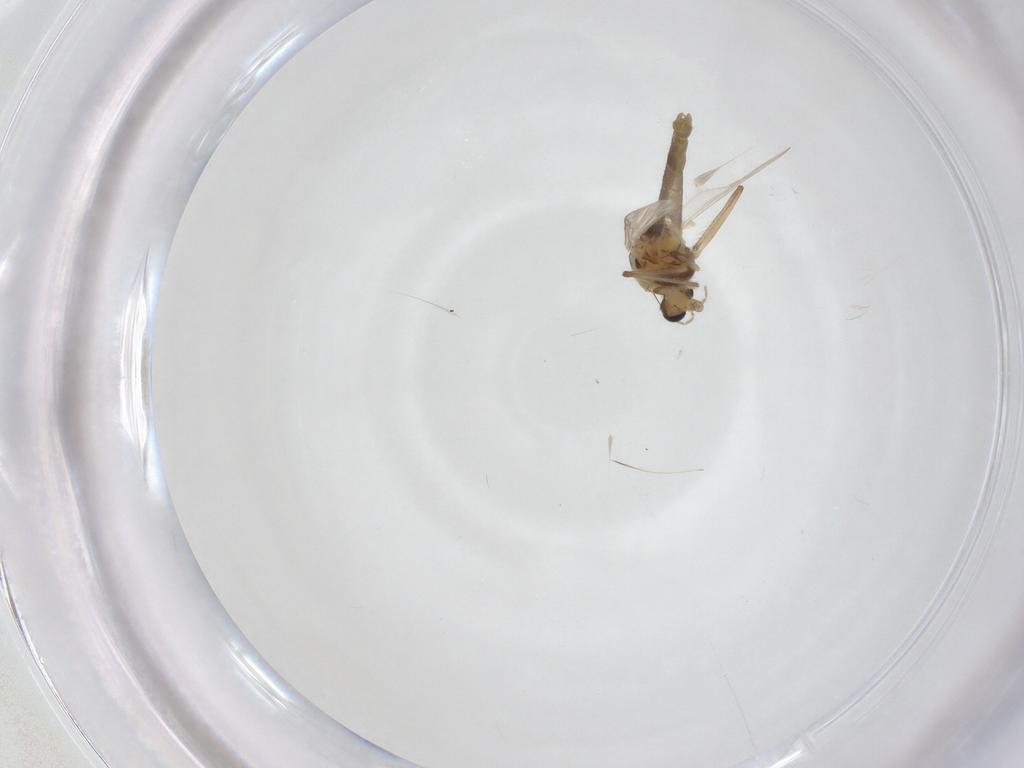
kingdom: Animalia
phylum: Arthropoda
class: Insecta
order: Diptera
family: Chironomidae
